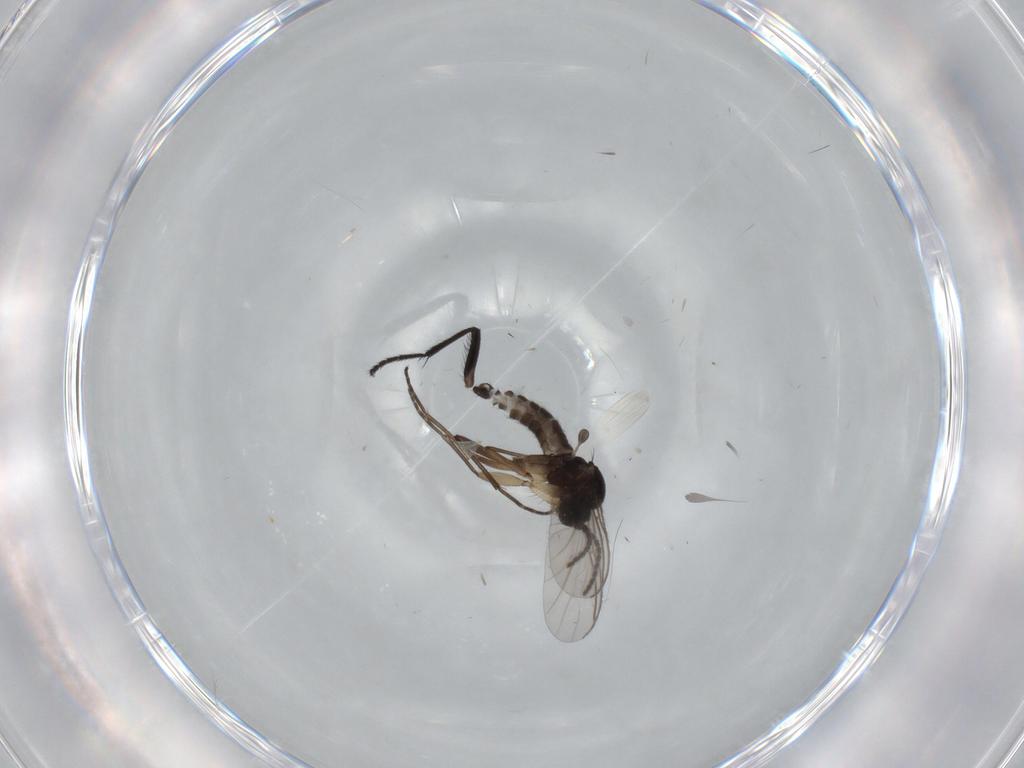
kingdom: Animalia
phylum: Arthropoda
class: Insecta
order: Diptera
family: Sciaridae
